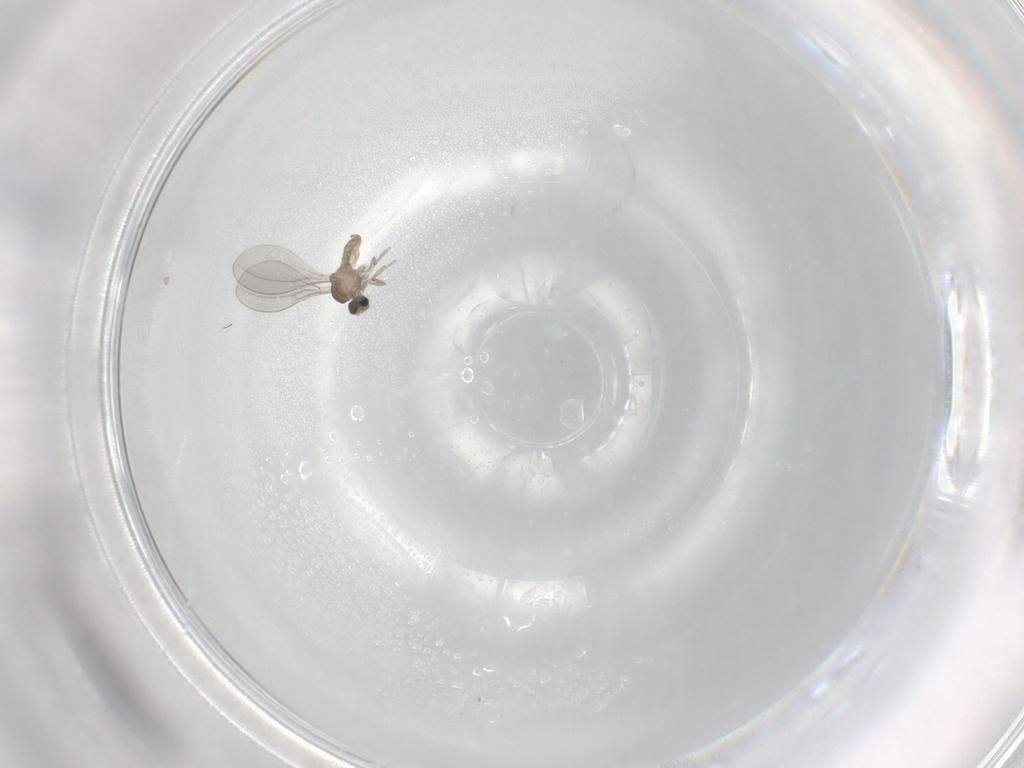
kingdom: Animalia
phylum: Arthropoda
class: Insecta
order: Diptera
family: Cecidomyiidae
